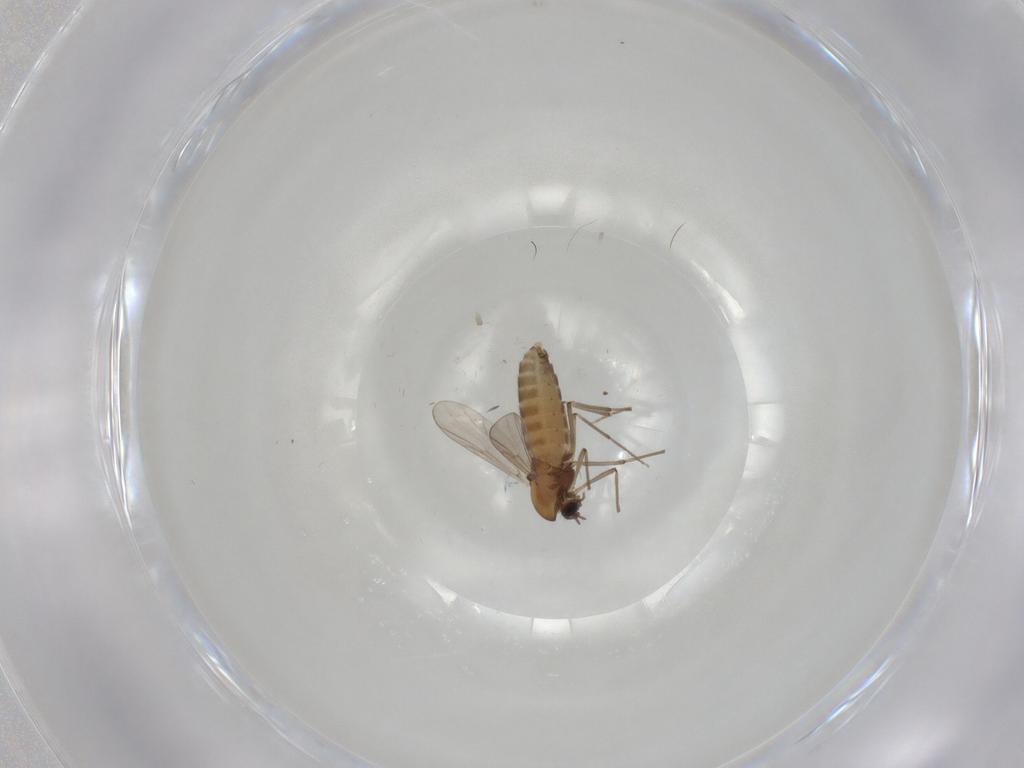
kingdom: Animalia
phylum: Arthropoda
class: Insecta
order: Diptera
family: Chironomidae
